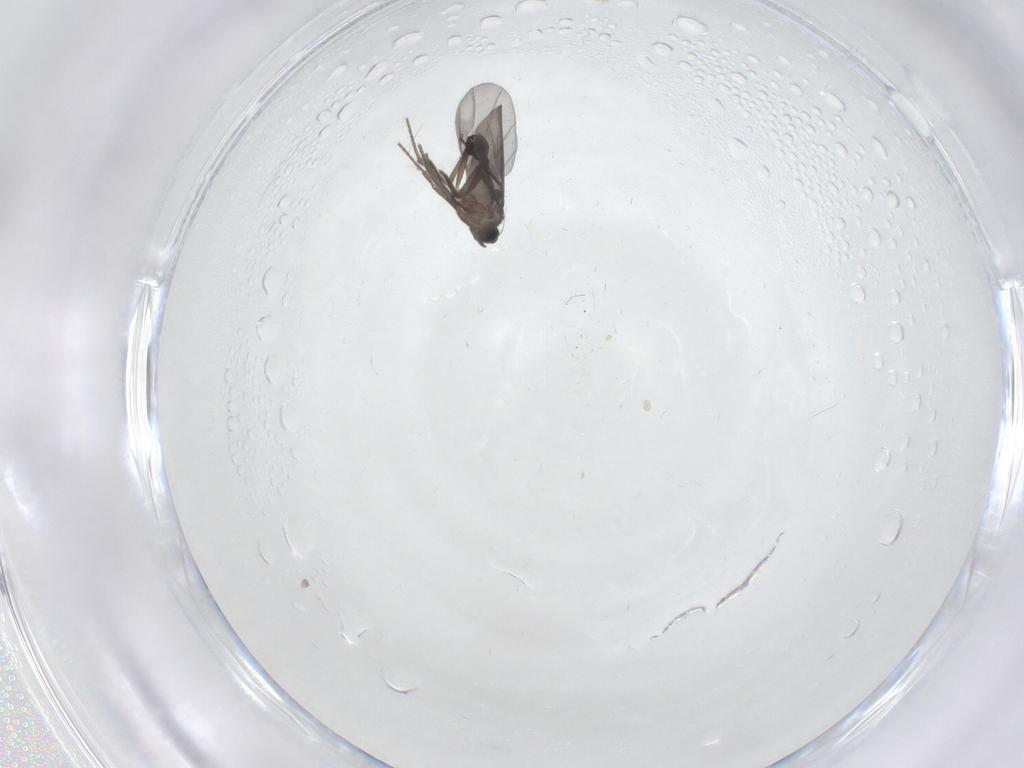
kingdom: Animalia
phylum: Arthropoda
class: Insecta
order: Diptera
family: Phoridae
